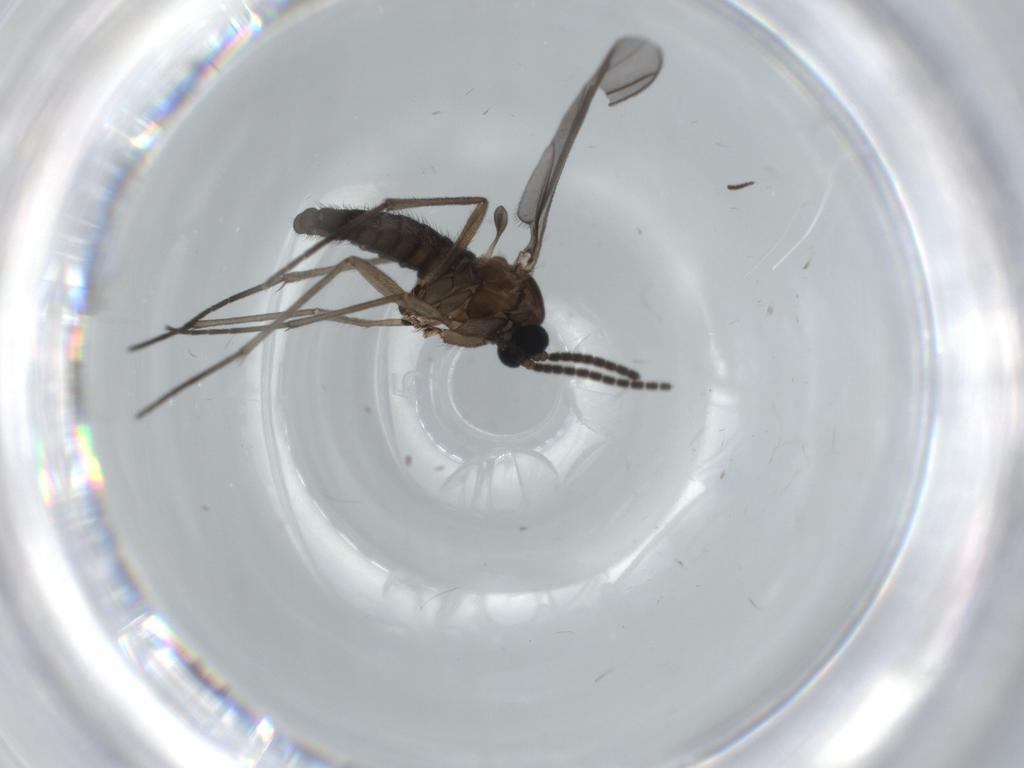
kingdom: Animalia
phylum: Arthropoda
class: Insecta
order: Diptera
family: Sciaridae
